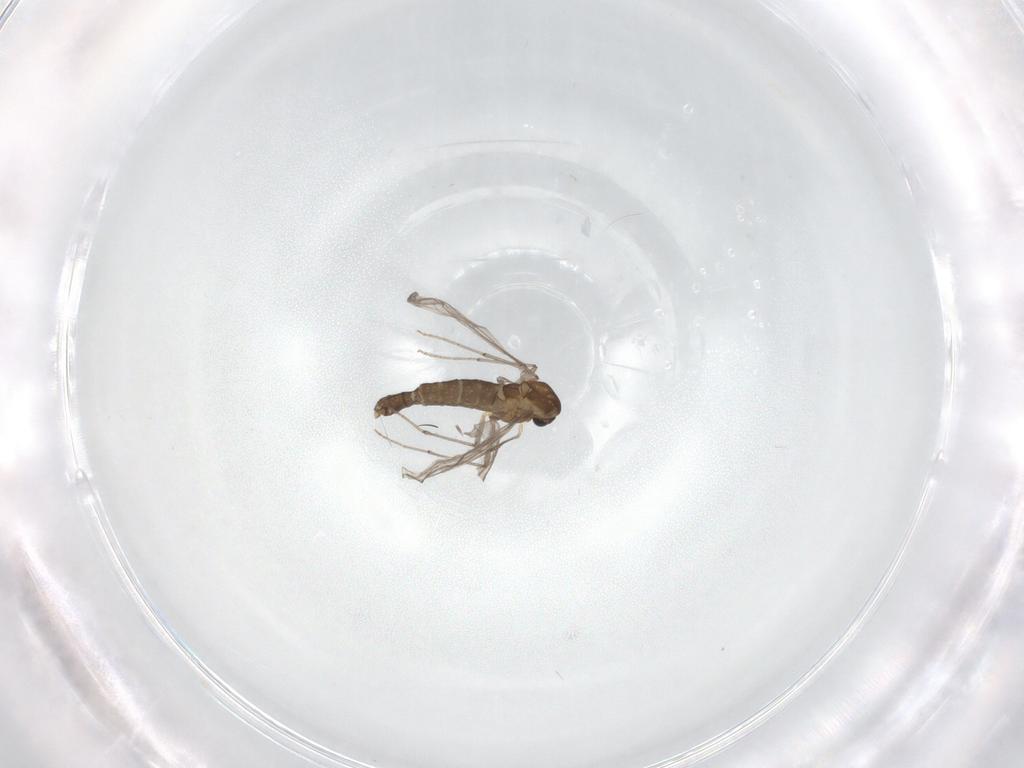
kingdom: Animalia
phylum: Arthropoda
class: Insecta
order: Diptera
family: Chironomidae
